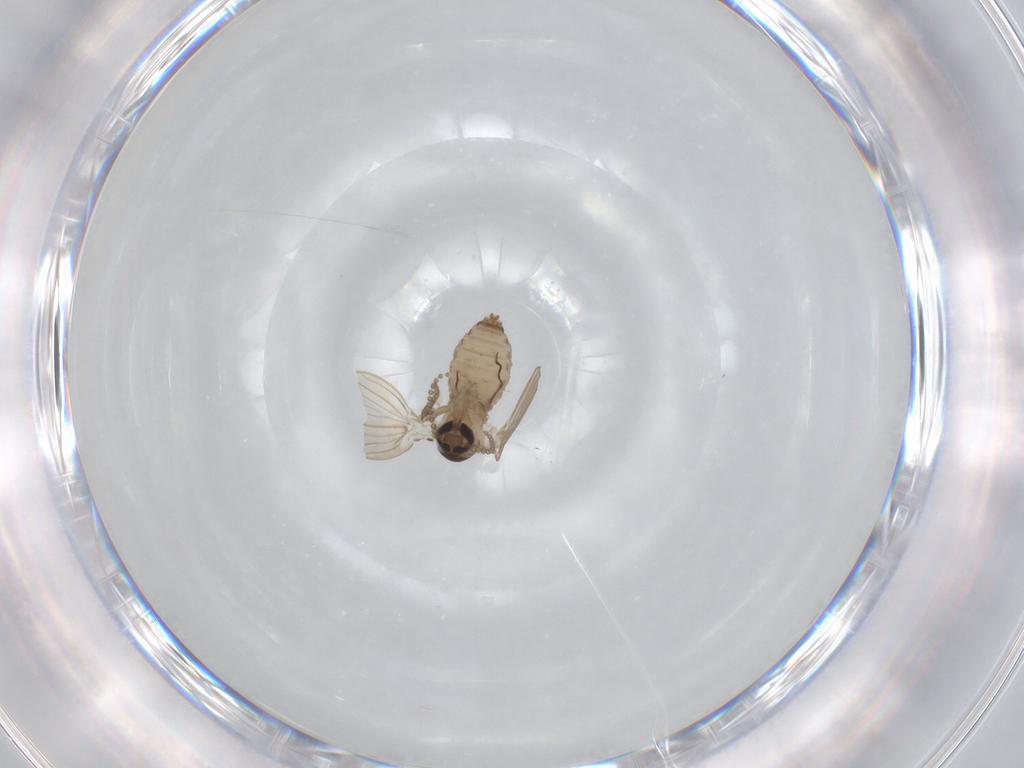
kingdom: Animalia
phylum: Arthropoda
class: Insecta
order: Diptera
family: Psychodidae
